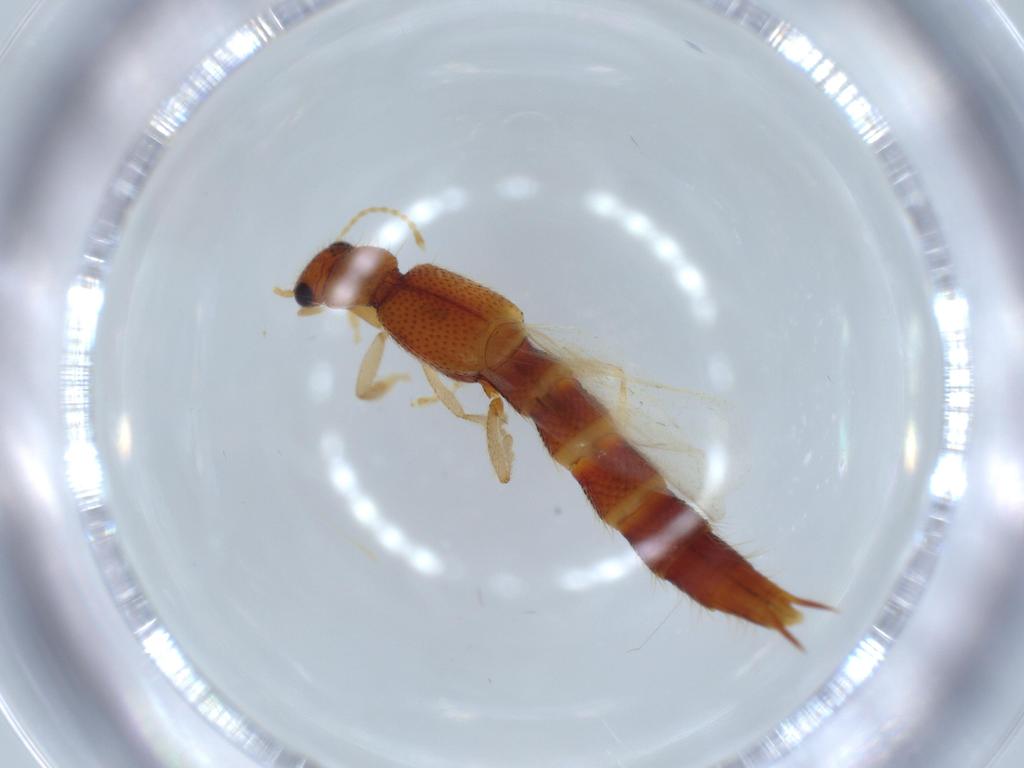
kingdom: Animalia
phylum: Arthropoda
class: Insecta
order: Coleoptera
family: Staphylinidae
